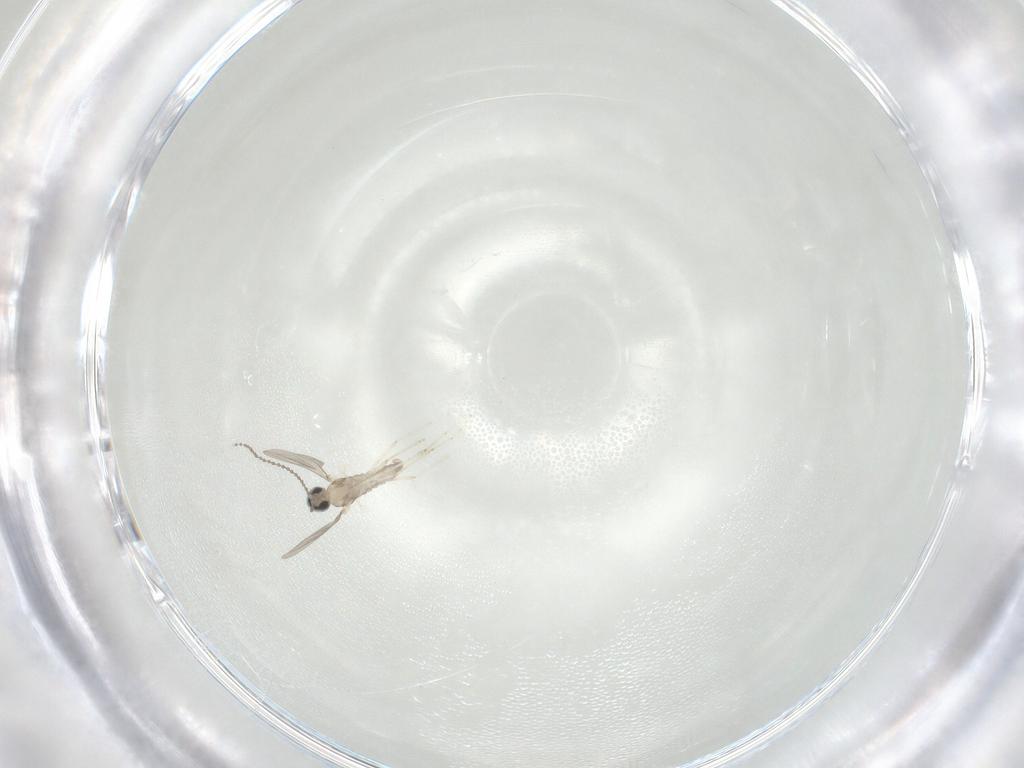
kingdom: Animalia
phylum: Arthropoda
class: Insecta
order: Diptera
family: Cecidomyiidae
